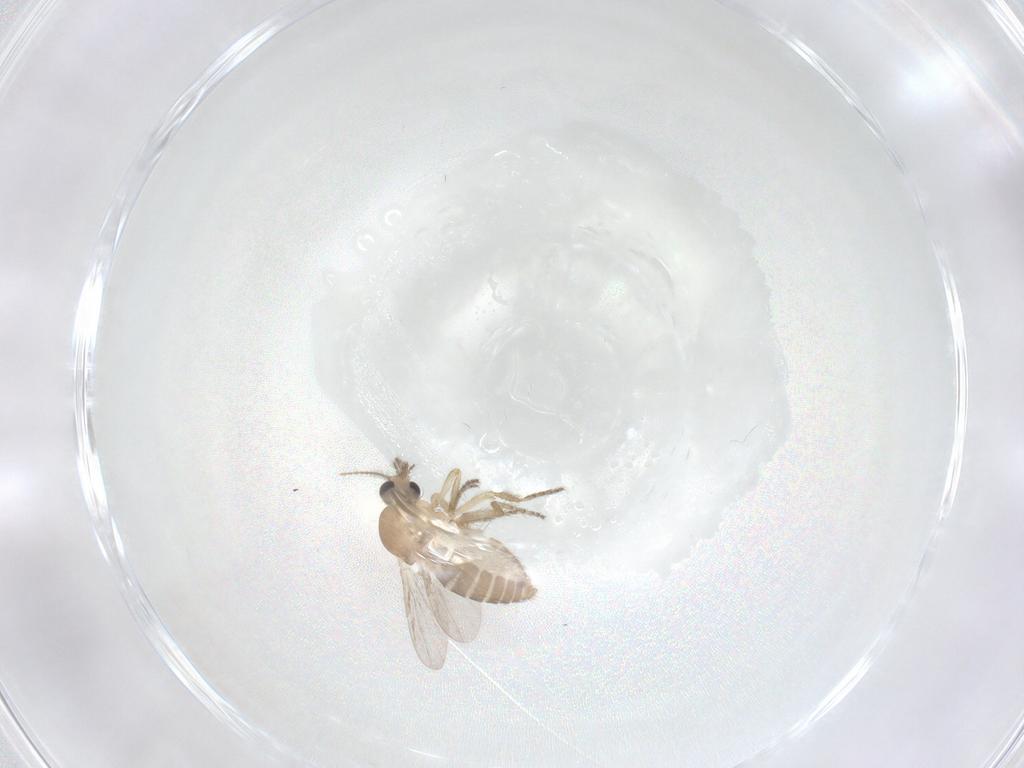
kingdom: Animalia
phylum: Arthropoda
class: Insecta
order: Diptera
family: Ceratopogonidae
